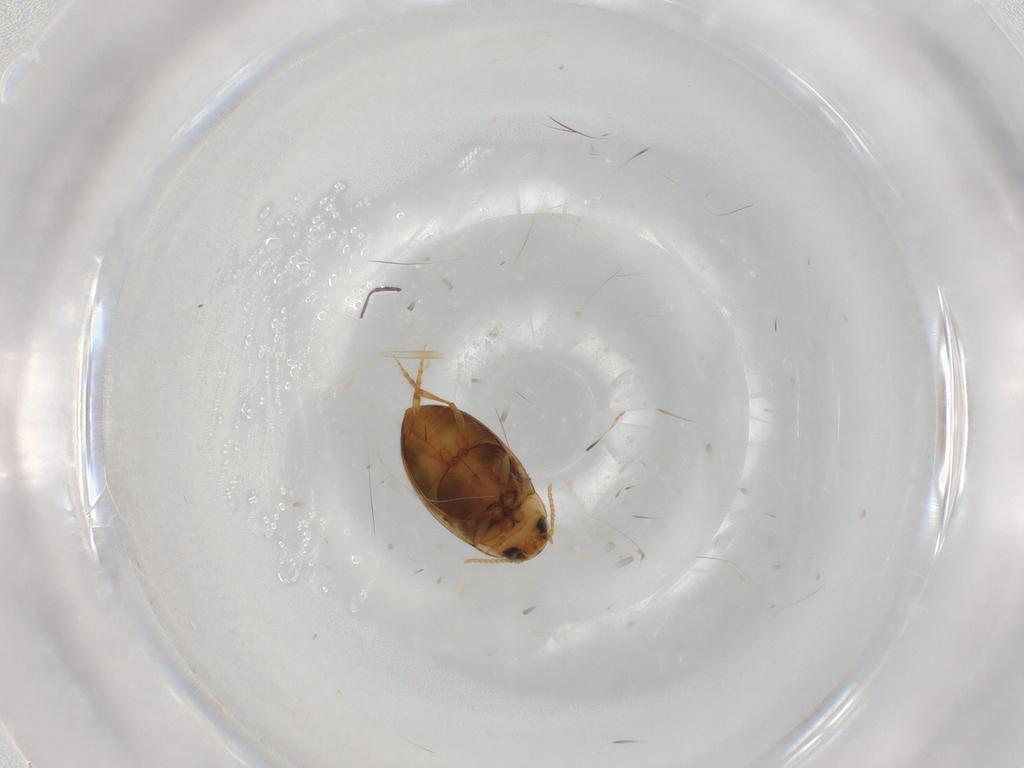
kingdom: Animalia
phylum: Arthropoda
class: Insecta
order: Coleoptera
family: Dytiscidae
